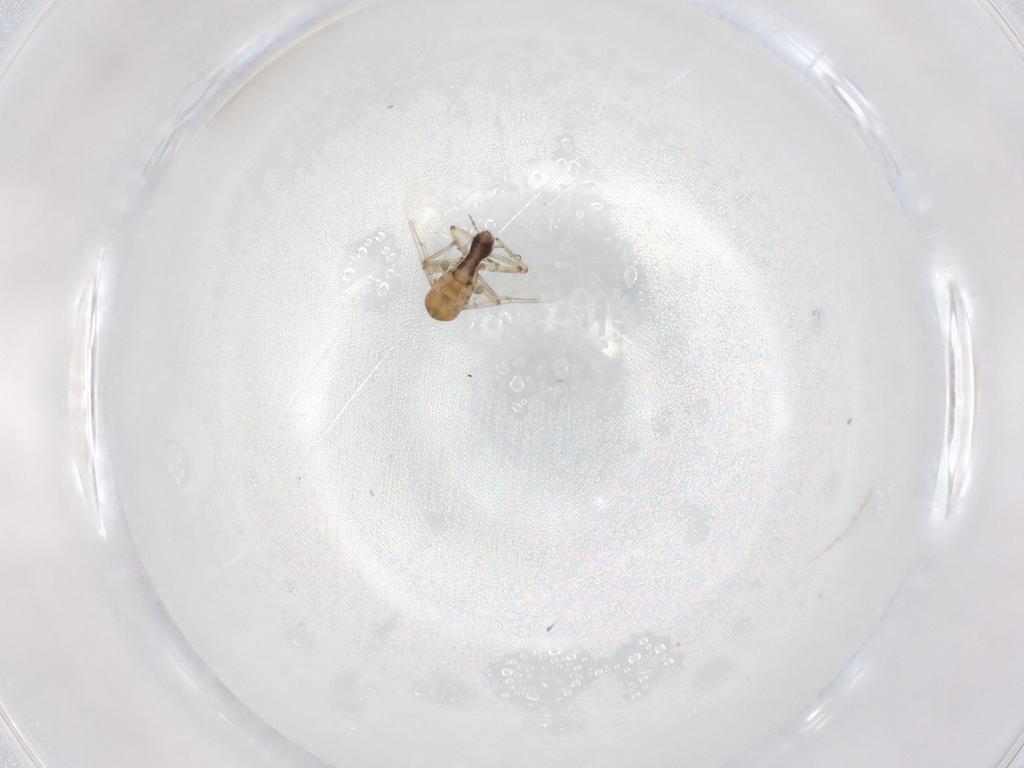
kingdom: Animalia
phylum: Arthropoda
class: Insecta
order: Diptera
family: Ceratopogonidae
